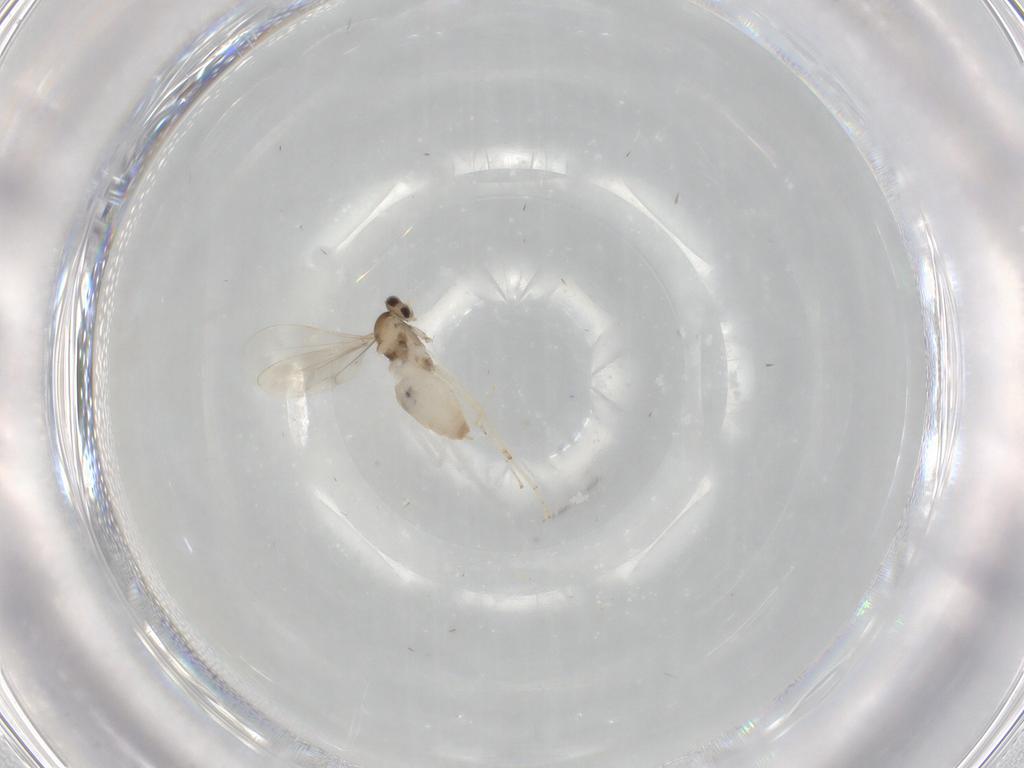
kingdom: Animalia
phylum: Arthropoda
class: Insecta
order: Diptera
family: Cecidomyiidae
